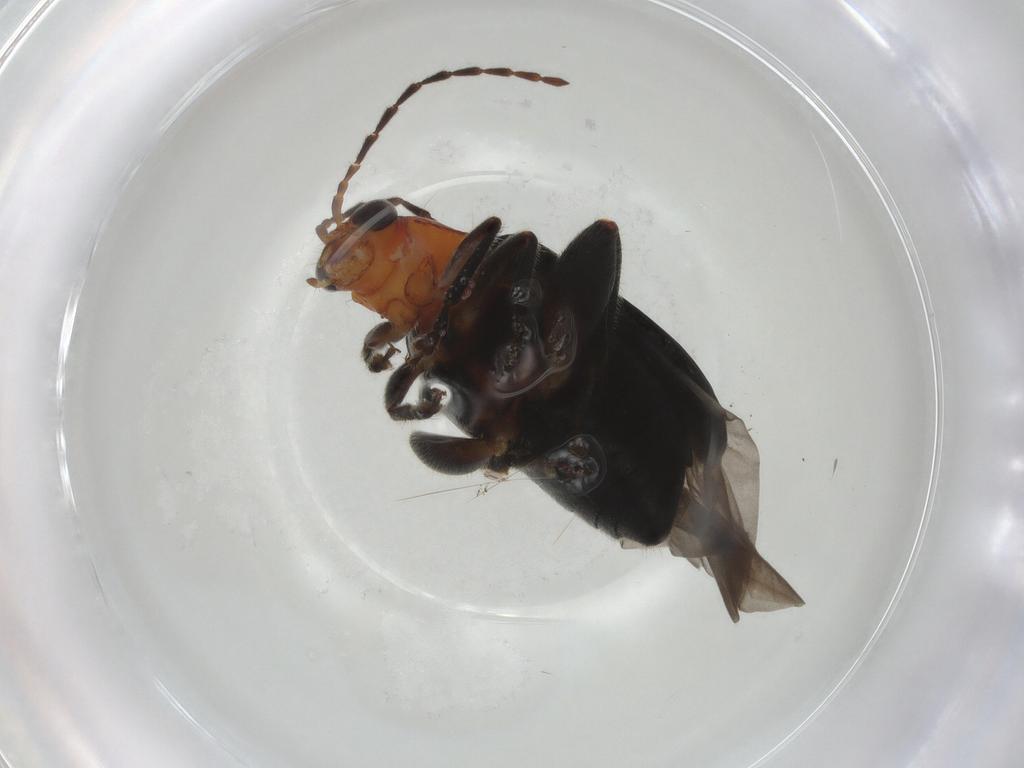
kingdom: Animalia
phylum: Arthropoda
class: Insecta
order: Coleoptera
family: Chrysomelidae
